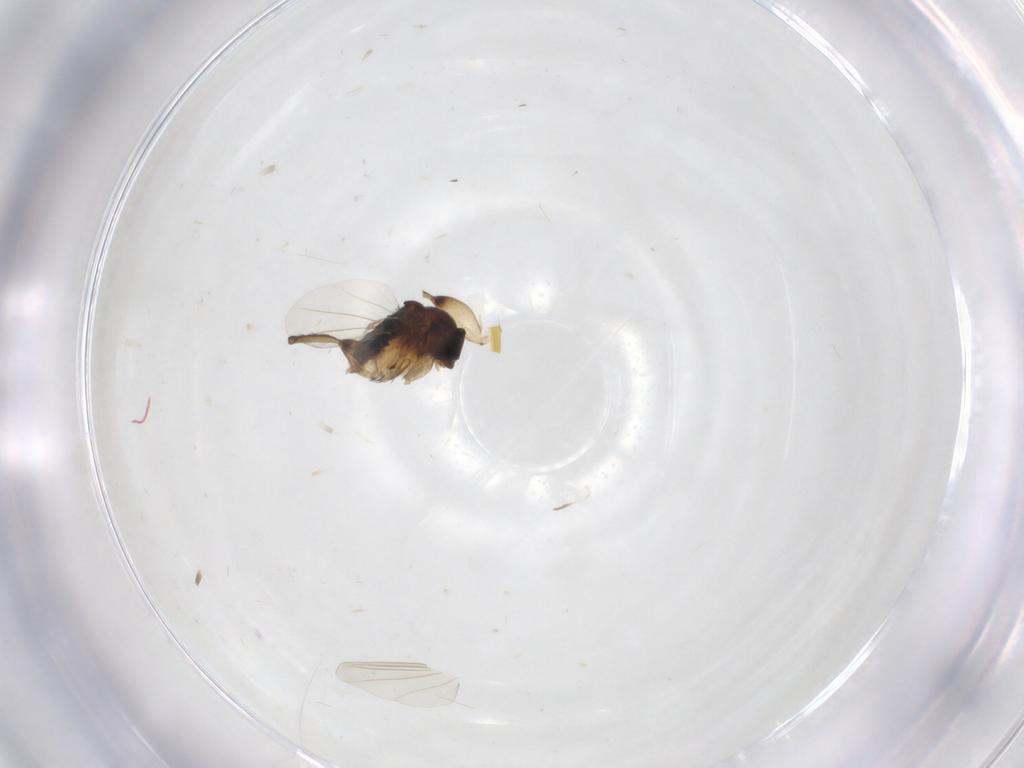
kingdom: Animalia
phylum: Arthropoda
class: Insecta
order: Diptera
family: Phoridae
